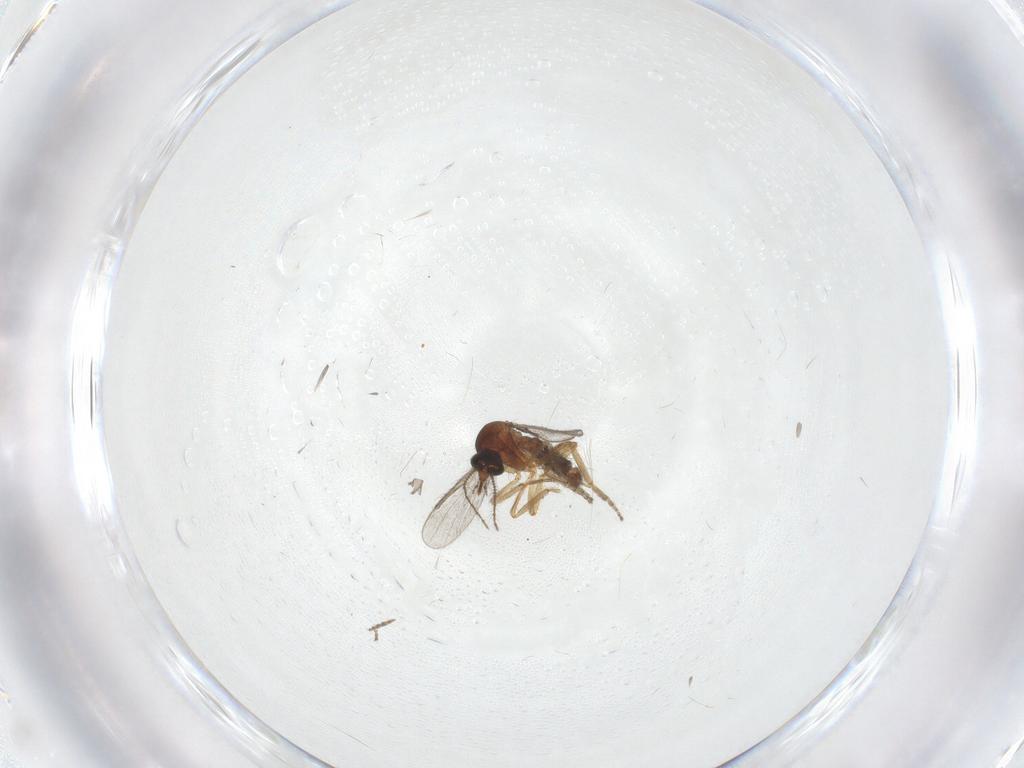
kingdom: Animalia
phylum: Arthropoda
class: Insecta
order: Diptera
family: Ceratopogonidae
